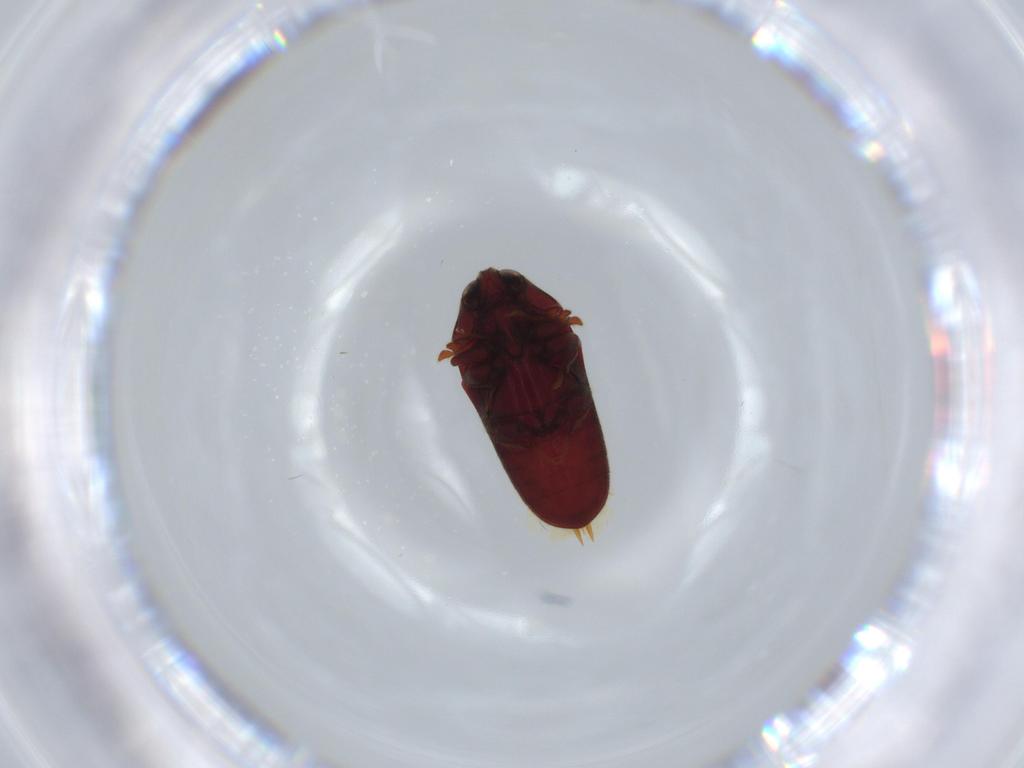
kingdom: Animalia
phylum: Arthropoda
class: Insecta
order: Coleoptera
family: Throscidae
